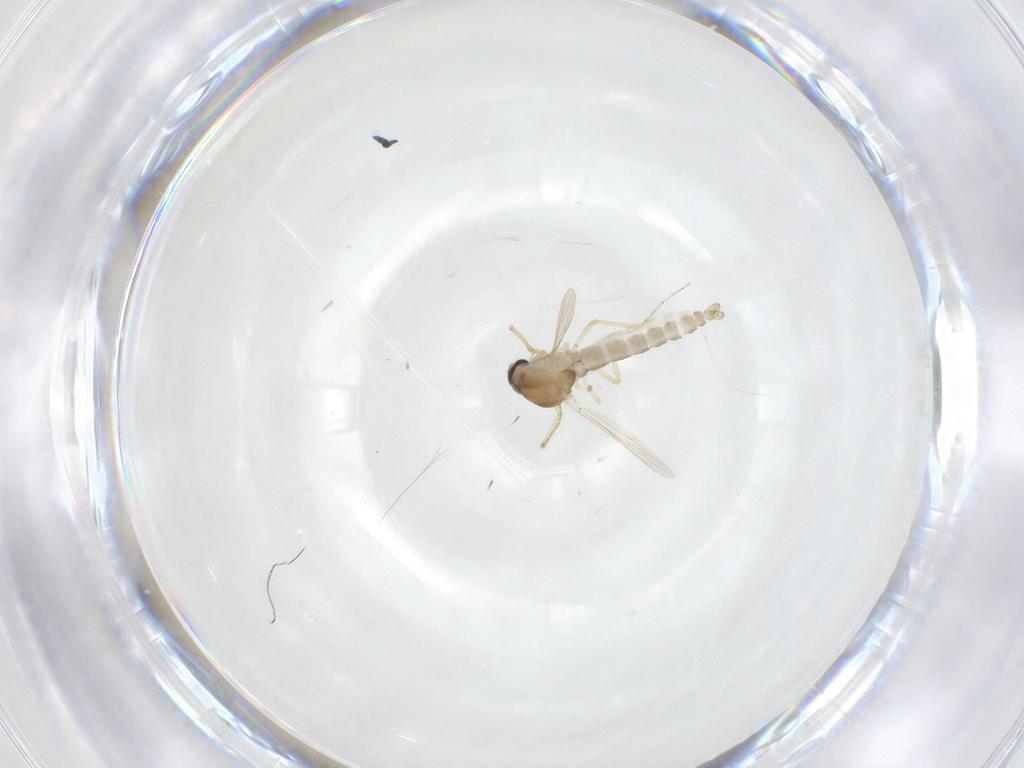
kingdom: Animalia
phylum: Arthropoda
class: Insecta
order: Diptera
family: Ceratopogonidae
